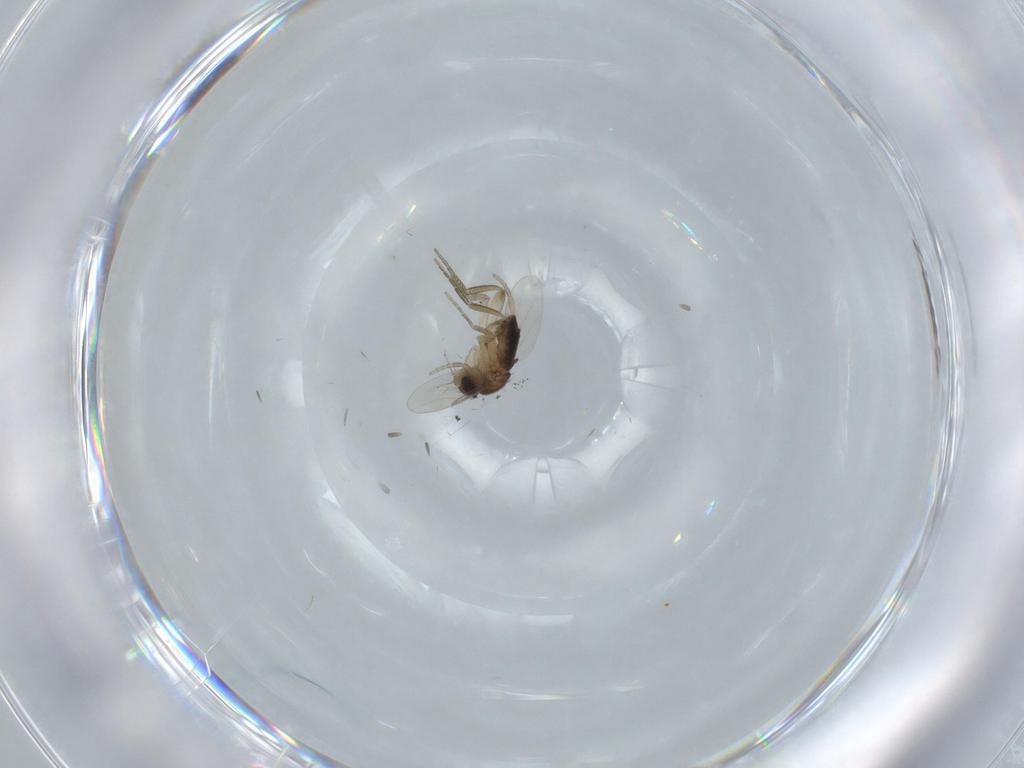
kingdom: Animalia
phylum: Arthropoda
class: Insecta
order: Diptera
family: Phoridae
